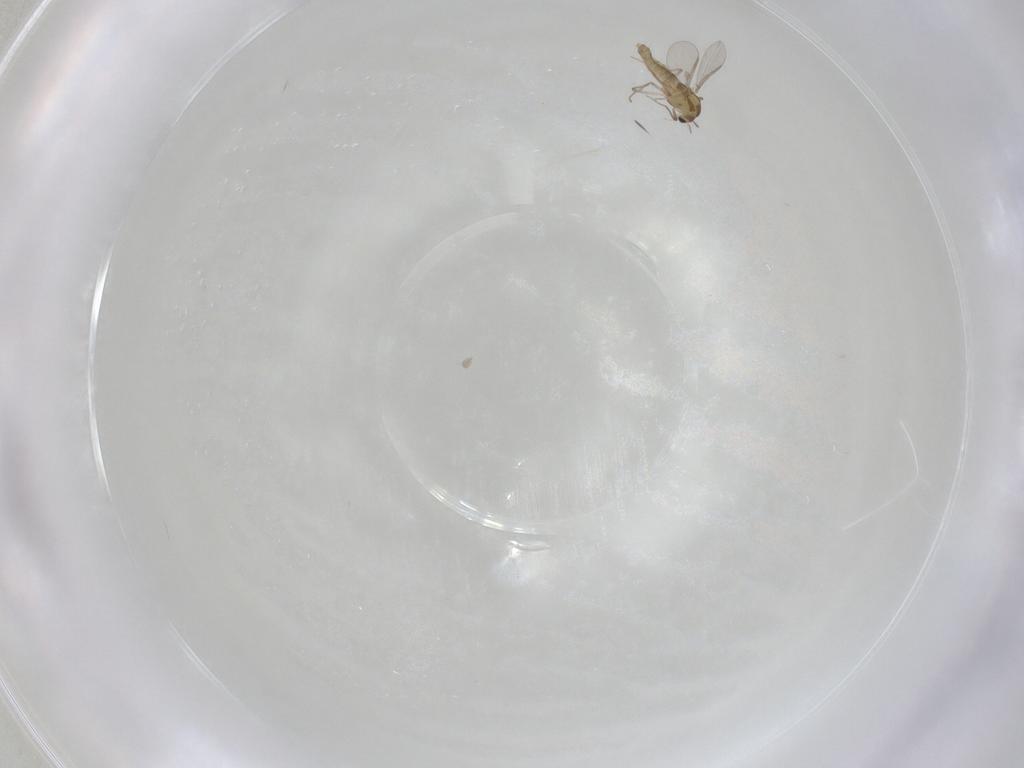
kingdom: Animalia
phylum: Arthropoda
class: Insecta
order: Diptera
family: Chironomidae
